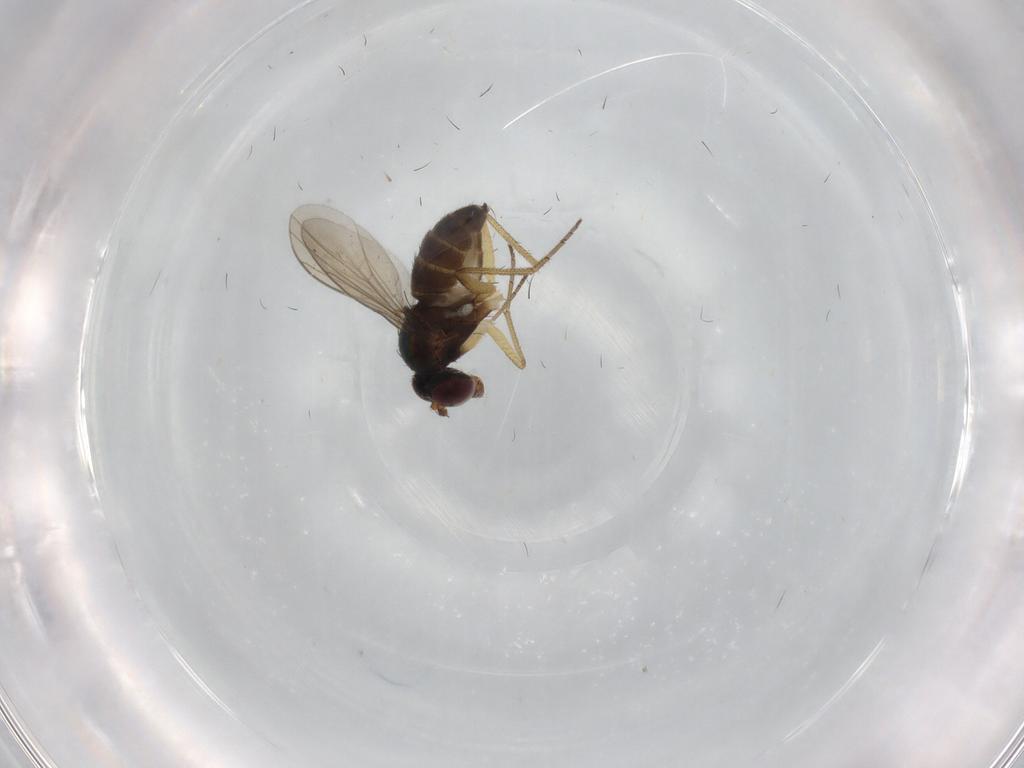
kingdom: Animalia
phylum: Arthropoda
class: Insecta
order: Diptera
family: Dolichopodidae
